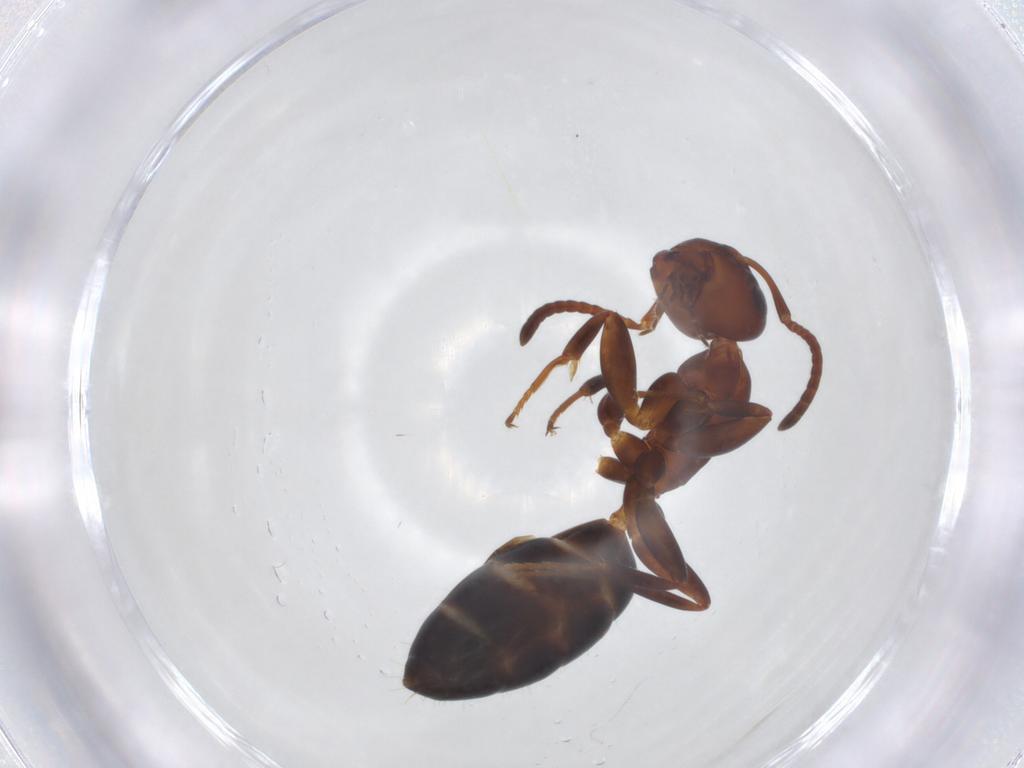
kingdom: Animalia
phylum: Arthropoda
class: Insecta
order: Hymenoptera
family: Formicidae
